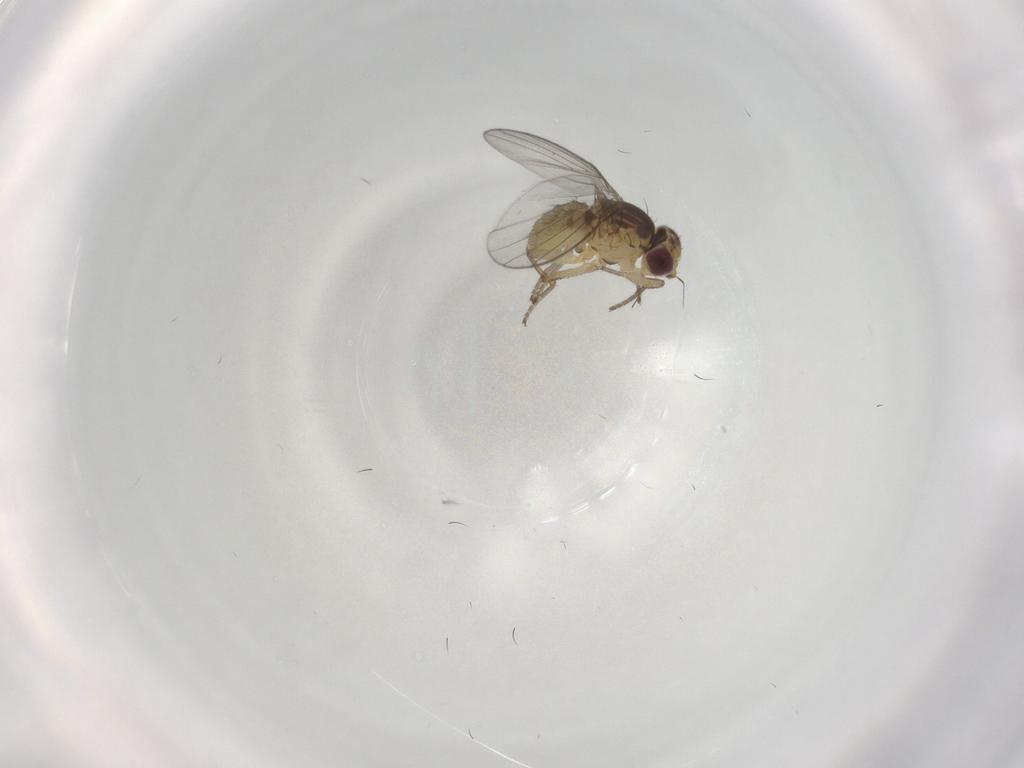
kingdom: Animalia
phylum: Arthropoda
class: Insecta
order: Diptera
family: Agromyzidae
